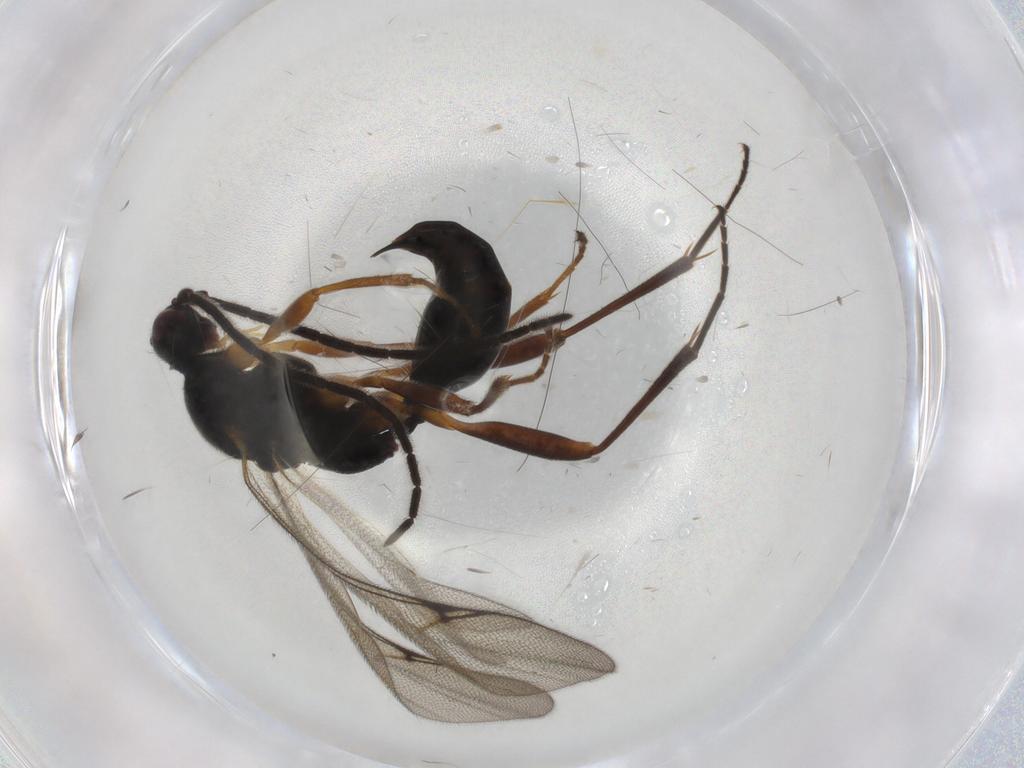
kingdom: Animalia
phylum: Arthropoda
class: Insecta
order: Hymenoptera
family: Proctotrupidae
